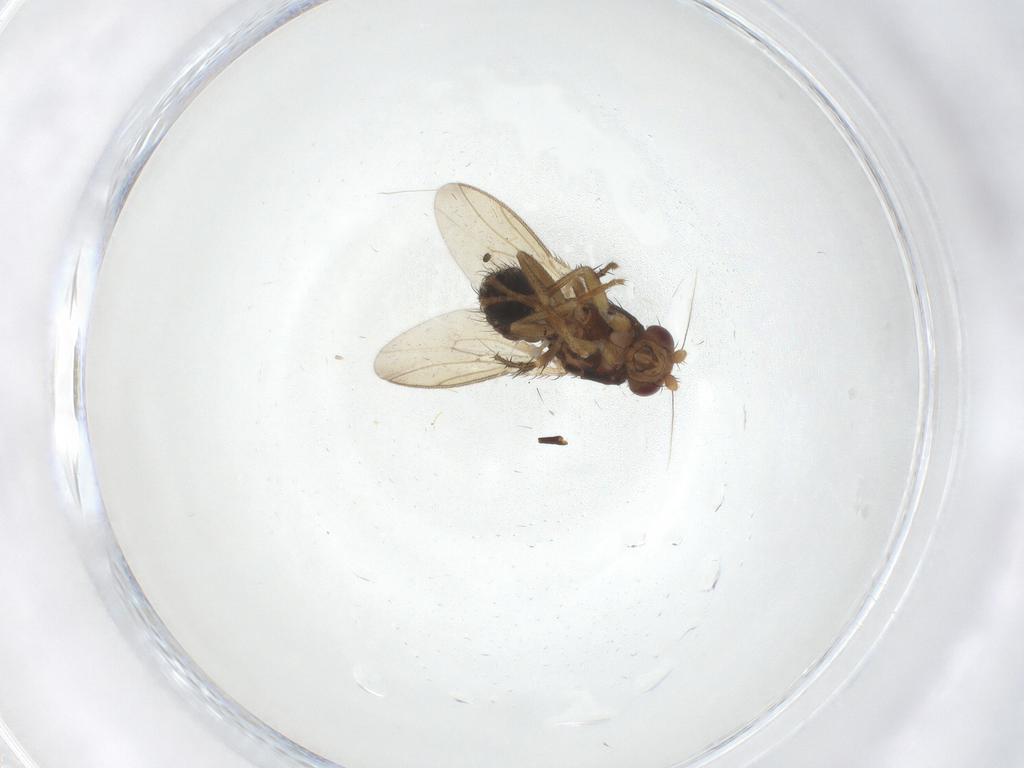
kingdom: Animalia
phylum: Arthropoda
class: Insecta
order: Diptera
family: Sphaeroceridae
